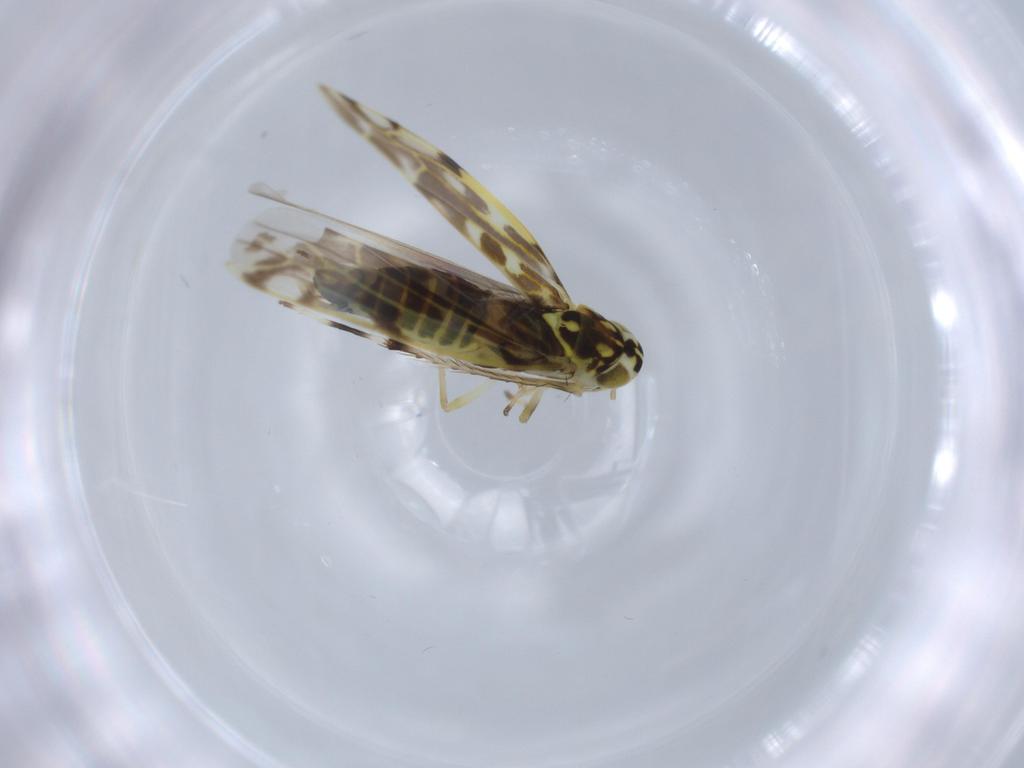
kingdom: Animalia
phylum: Arthropoda
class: Insecta
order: Hemiptera
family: Cicadellidae
